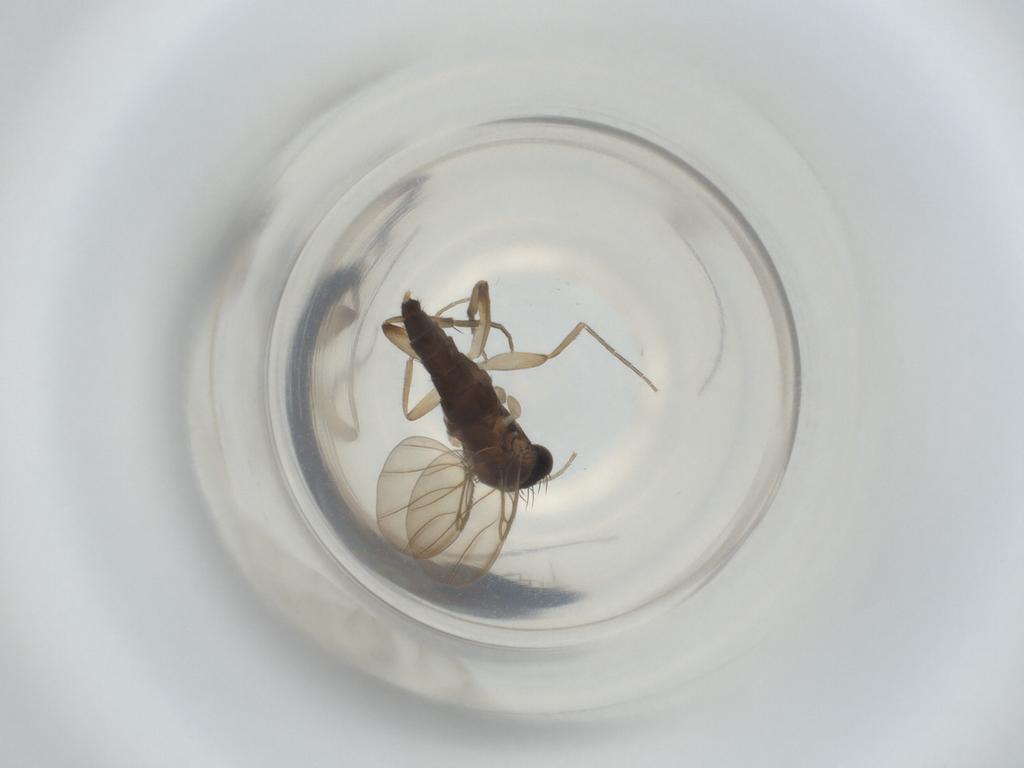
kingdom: Animalia
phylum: Arthropoda
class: Insecta
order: Diptera
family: Phoridae
